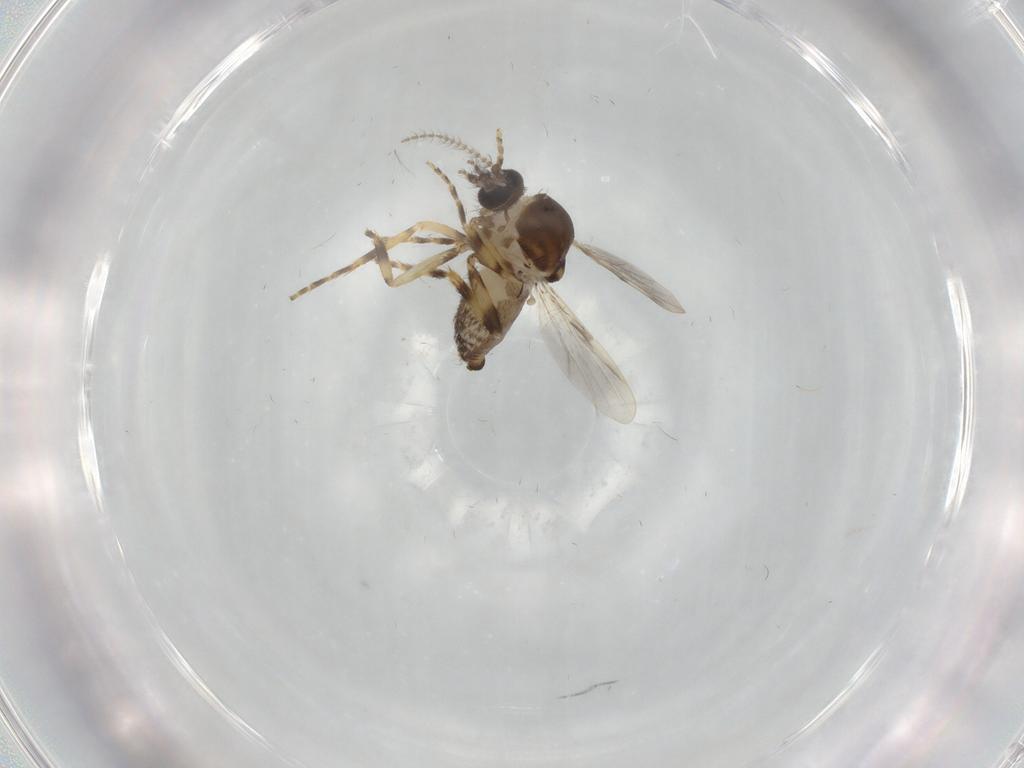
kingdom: Animalia
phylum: Arthropoda
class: Insecta
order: Diptera
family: Ceratopogonidae
